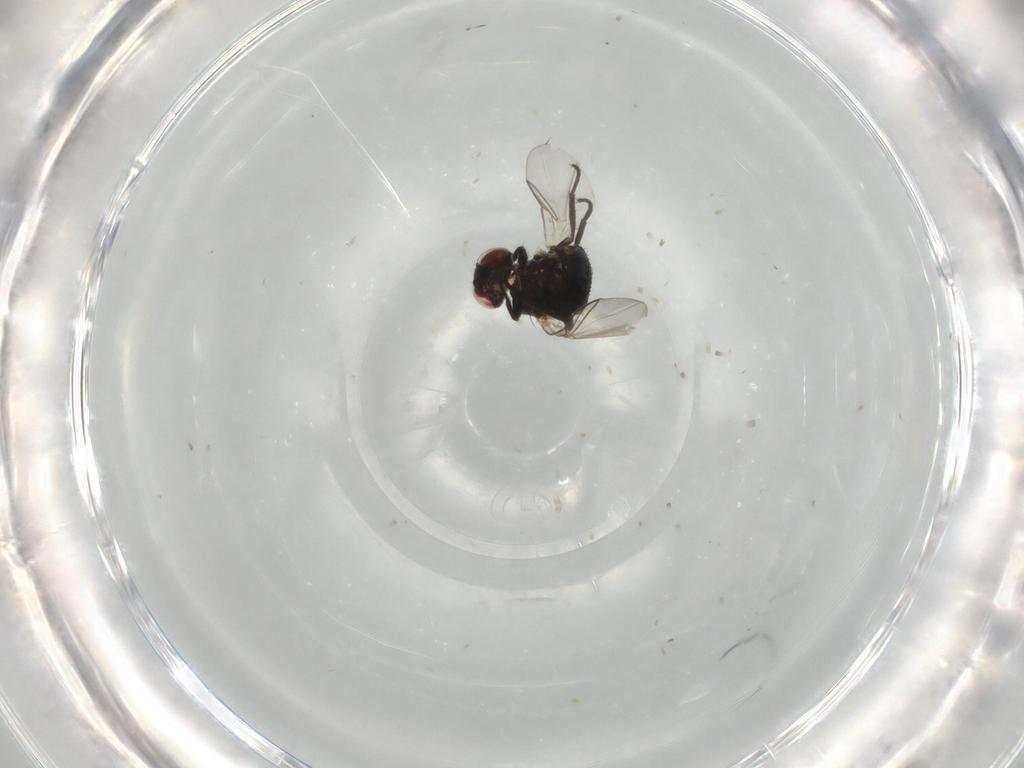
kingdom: Animalia
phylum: Arthropoda
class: Insecta
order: Diptera
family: Agromyzidae
